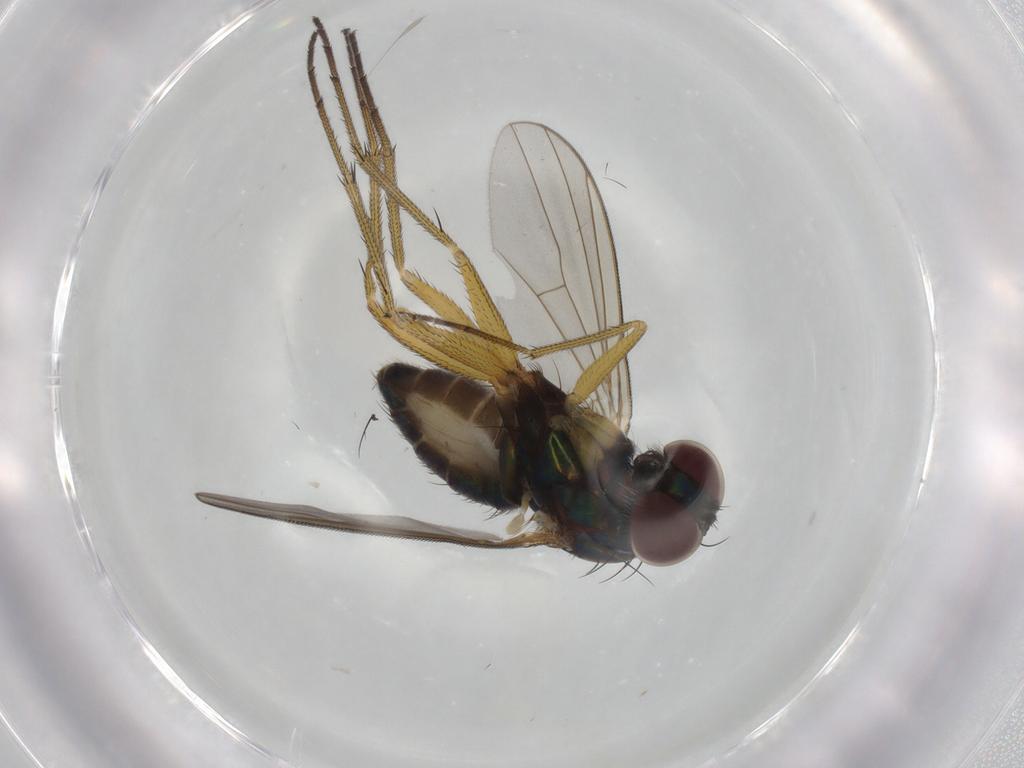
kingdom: Animalia
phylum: Arthropoda
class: Insecta
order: Diptera
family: Dolichopodidae
